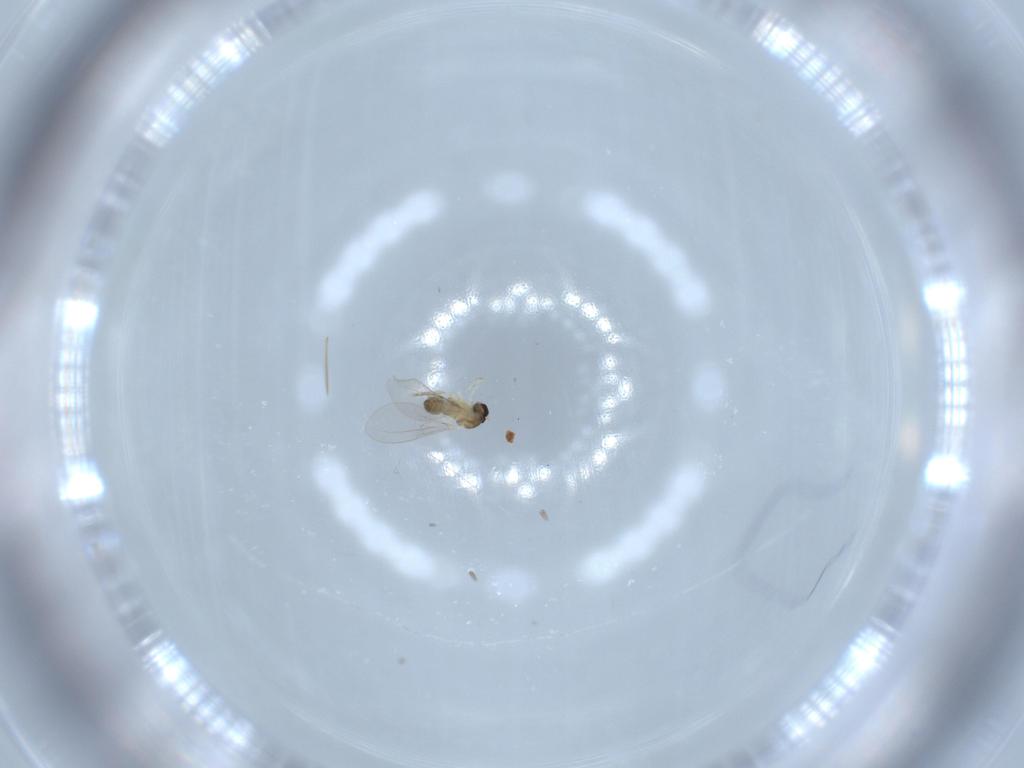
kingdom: Animalia
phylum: Arthropoda
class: Insecta
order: Diptera
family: Cecidomyiidae
